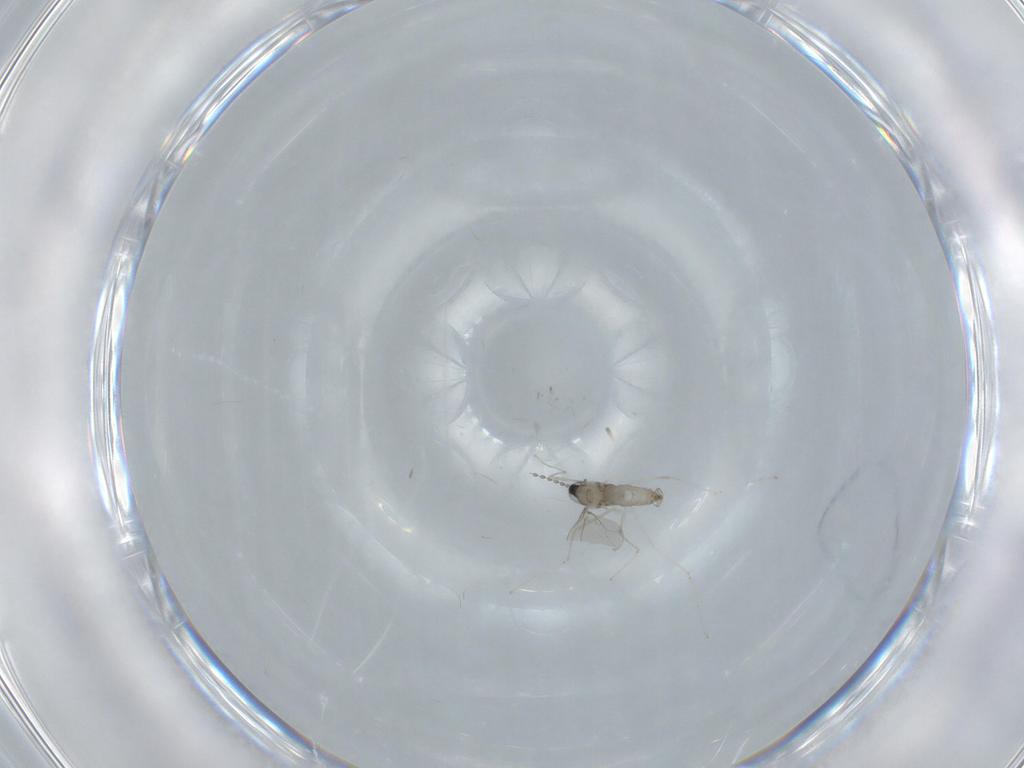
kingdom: Animalia
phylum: Arthropoda
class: Insecta
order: Diptera
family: Cecidomyiidae
